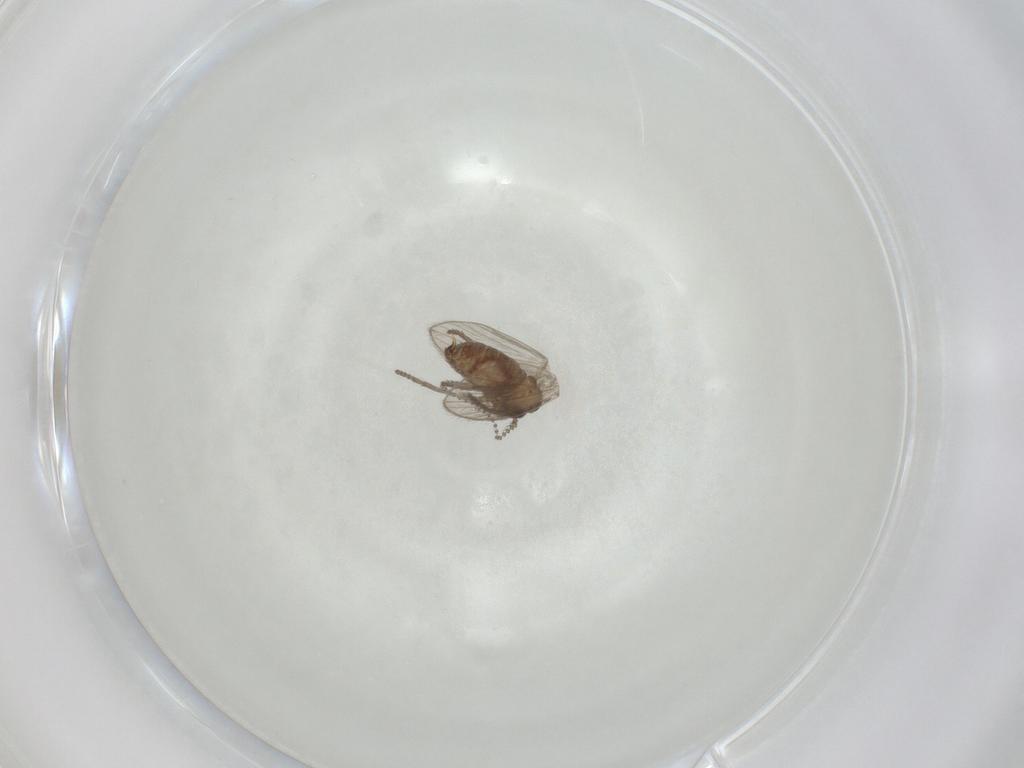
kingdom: Animalia
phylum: Arthropoda
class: Insecta
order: Diptera
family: Psychodidae
